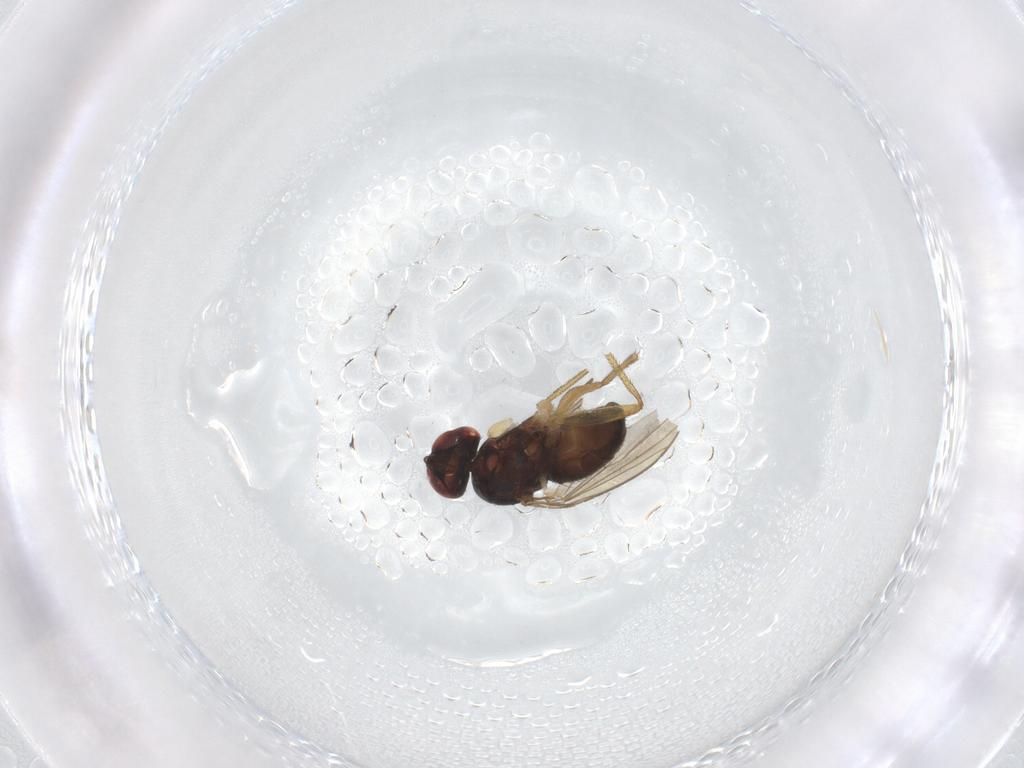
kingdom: Animalia
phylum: Arthropoda
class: Insecta
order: Diptera
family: Dolichopodidae
